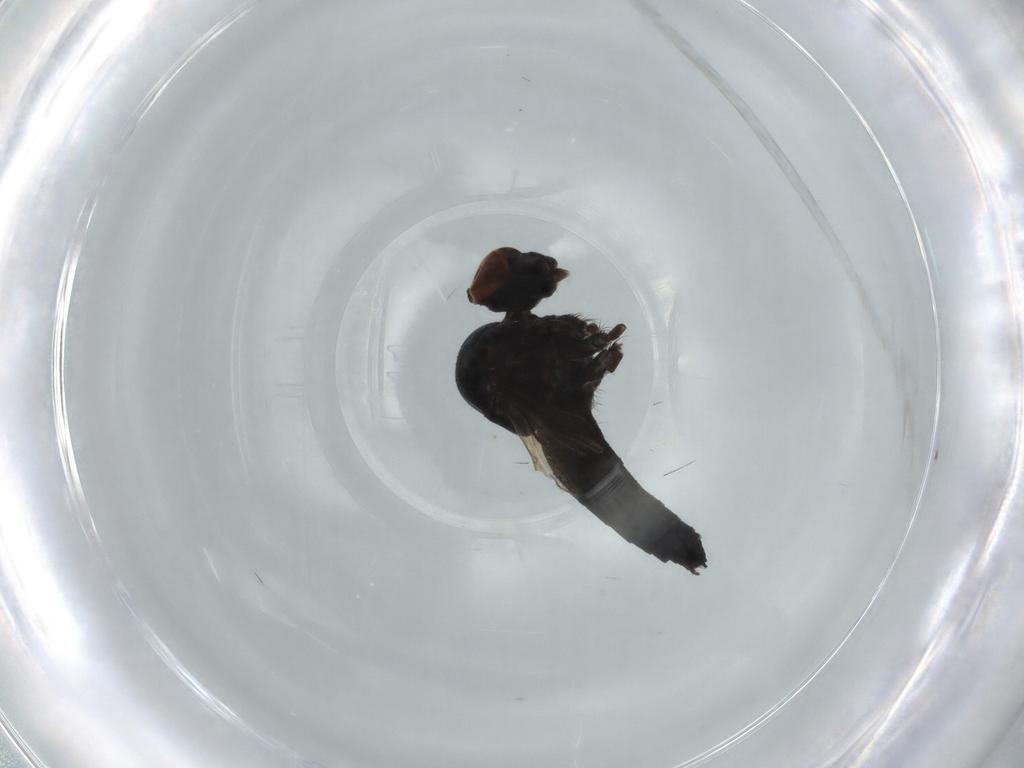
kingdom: Animalia
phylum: Arthropoda
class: Insecta
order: Diptera
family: Hybotidae
